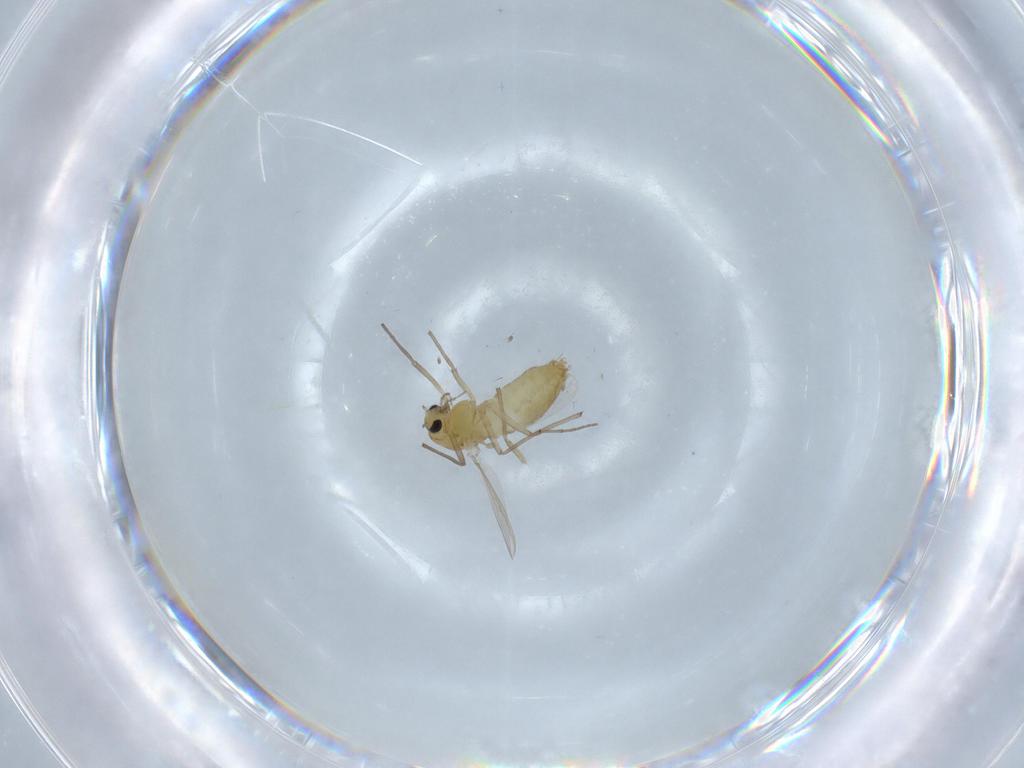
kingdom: Animalia
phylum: Arthropoda
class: Insecta
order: Diptera
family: Chironomidae
